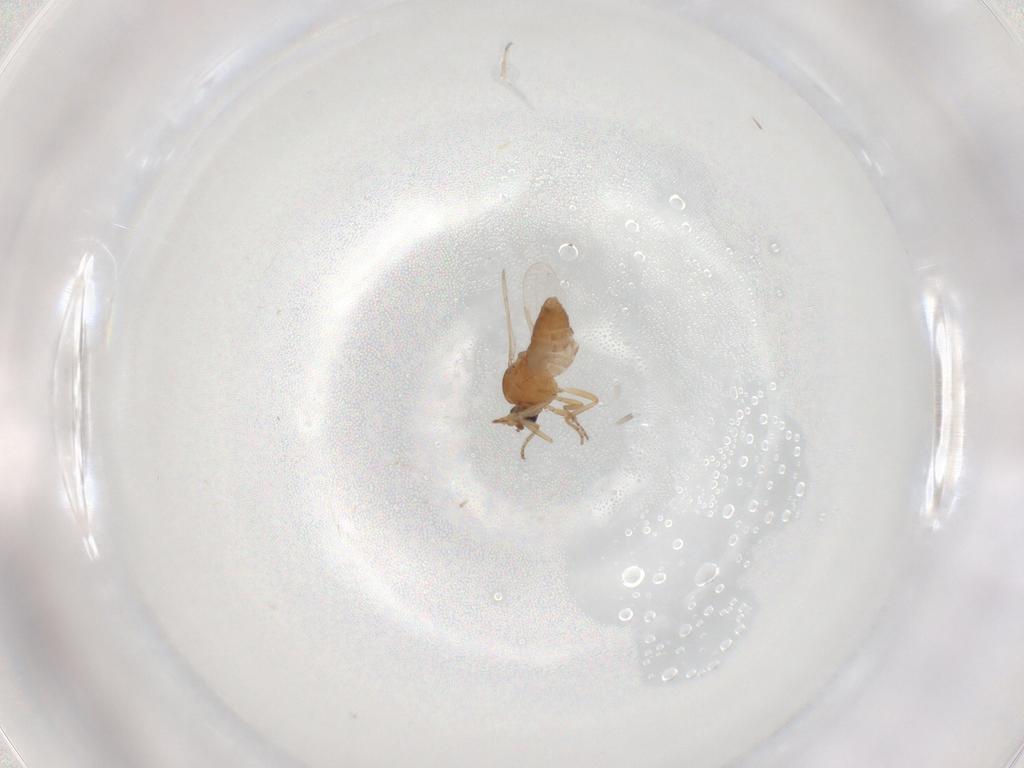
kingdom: Animalia
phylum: Arthropoda
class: Insecta
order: Diptera
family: Ceratopogonidae
